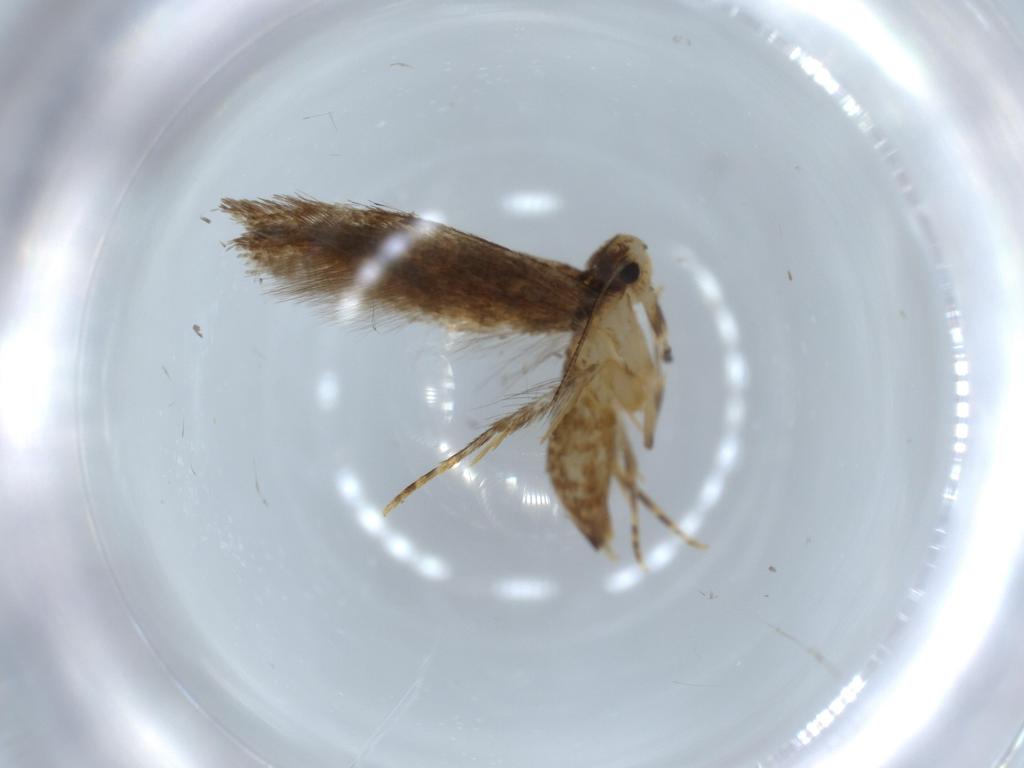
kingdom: Animalia
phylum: Arthropoda
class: Insecta
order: Lepidoptera
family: Tineidae
